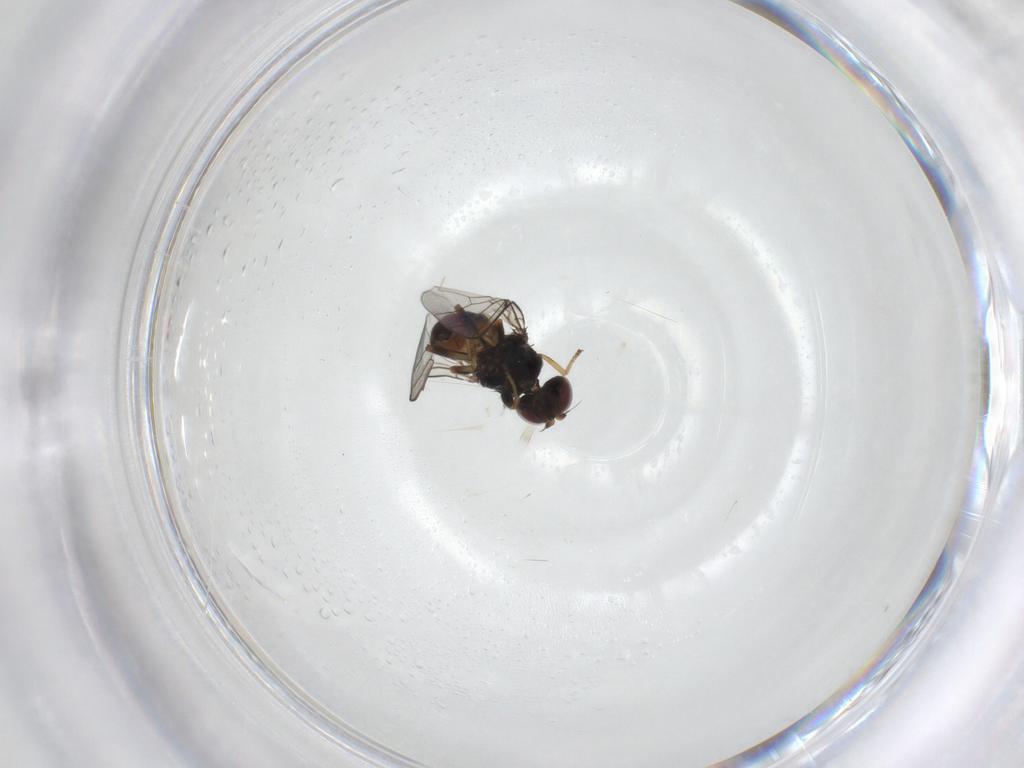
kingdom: Animalia
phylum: Arthropoda
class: Insecta
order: Diptera
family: Chloropidae
